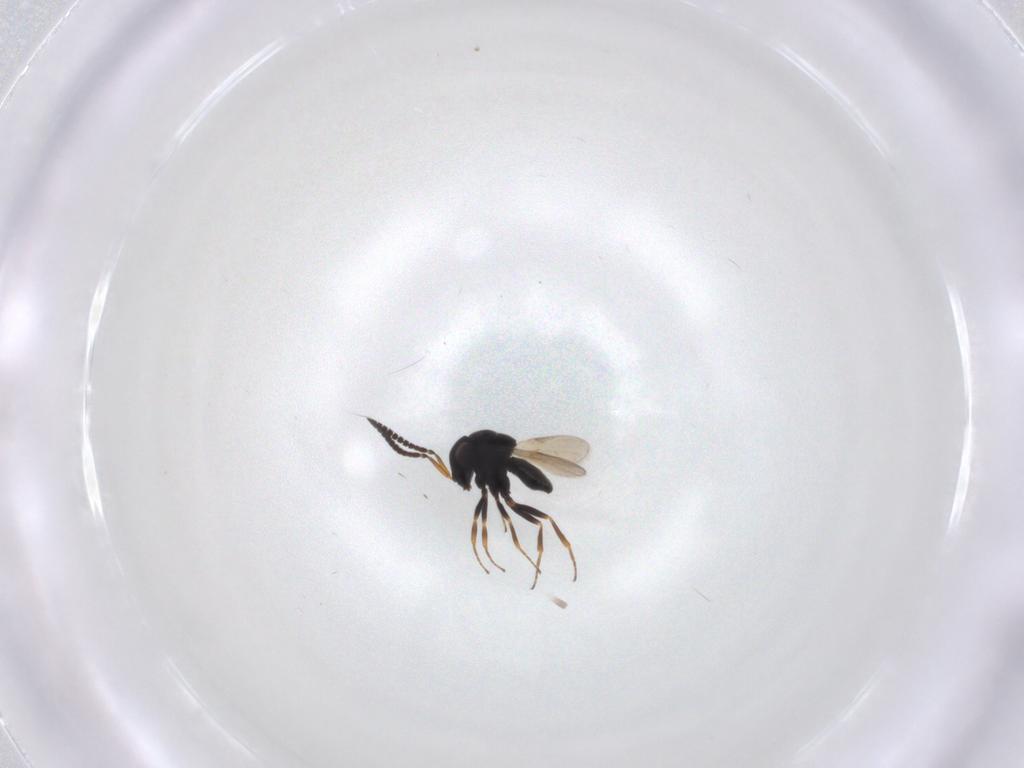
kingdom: Animalia
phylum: Arthropoda
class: Insecta
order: Hymenoptera
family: Scelionidae
